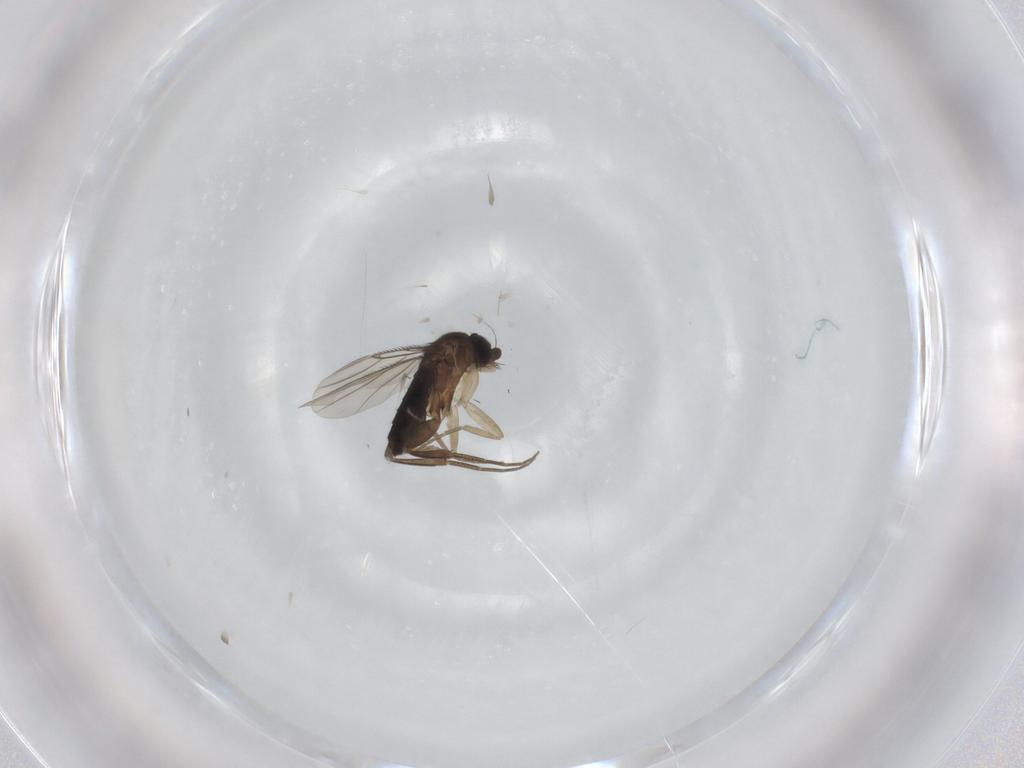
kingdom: Animalia
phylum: Arthropoda
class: Insecta
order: Diptera
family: Phoridae
